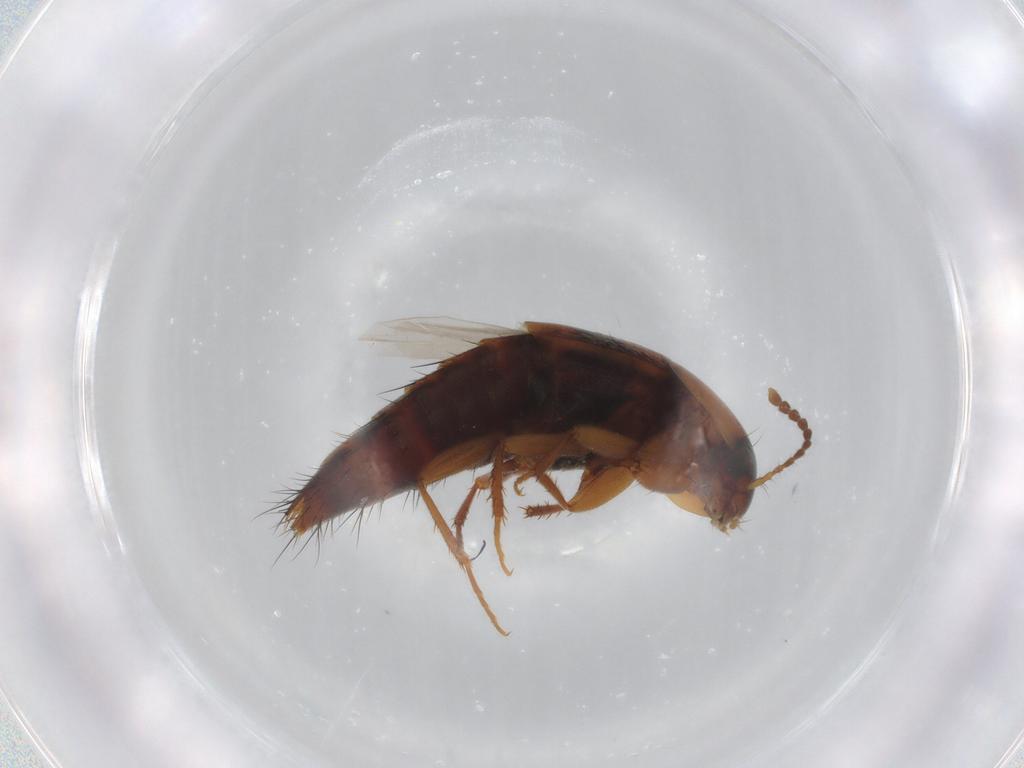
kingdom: Animalia
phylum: Arthropoda
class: Insecta
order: Coleoptera
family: Staphylinidae
